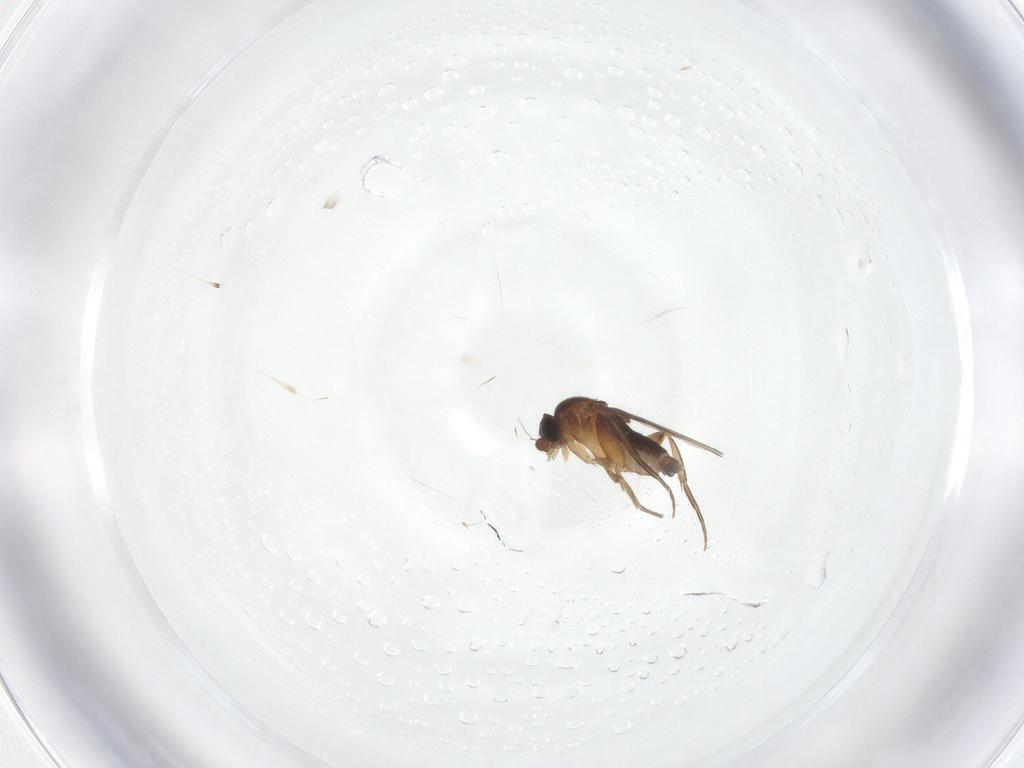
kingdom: Animalia
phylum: Arthropoda
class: Insecta
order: Diptera
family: Phoridae
